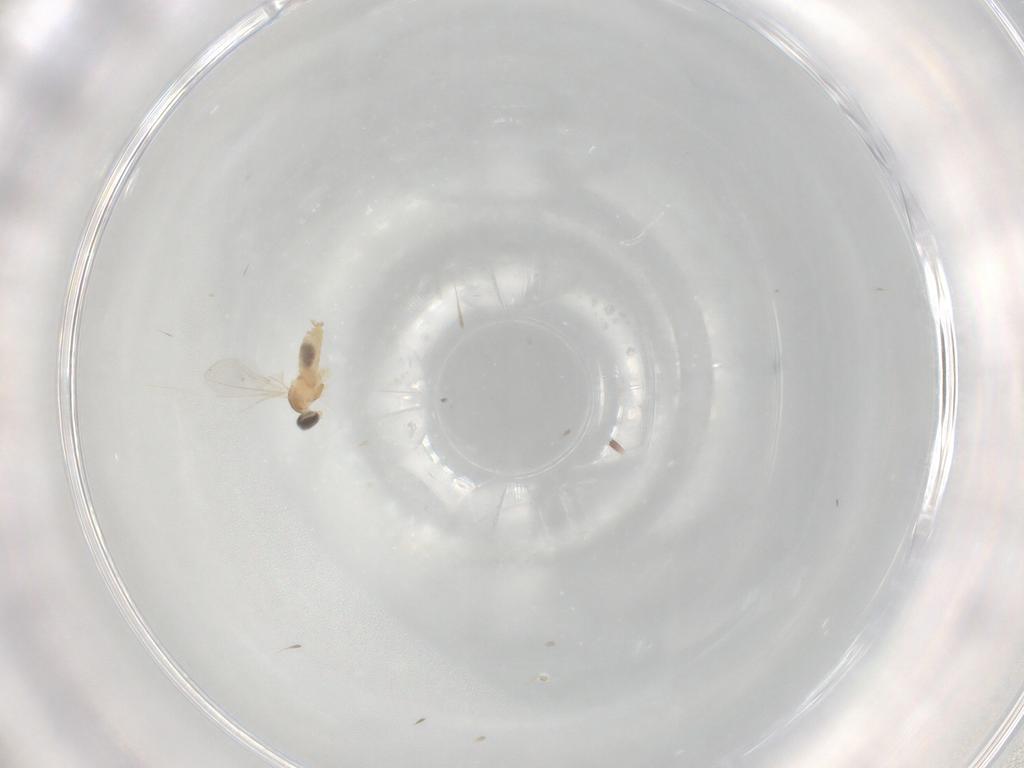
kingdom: Animalia
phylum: Arthropoda
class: Insecta
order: Diptera
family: Cecidomyiidae
